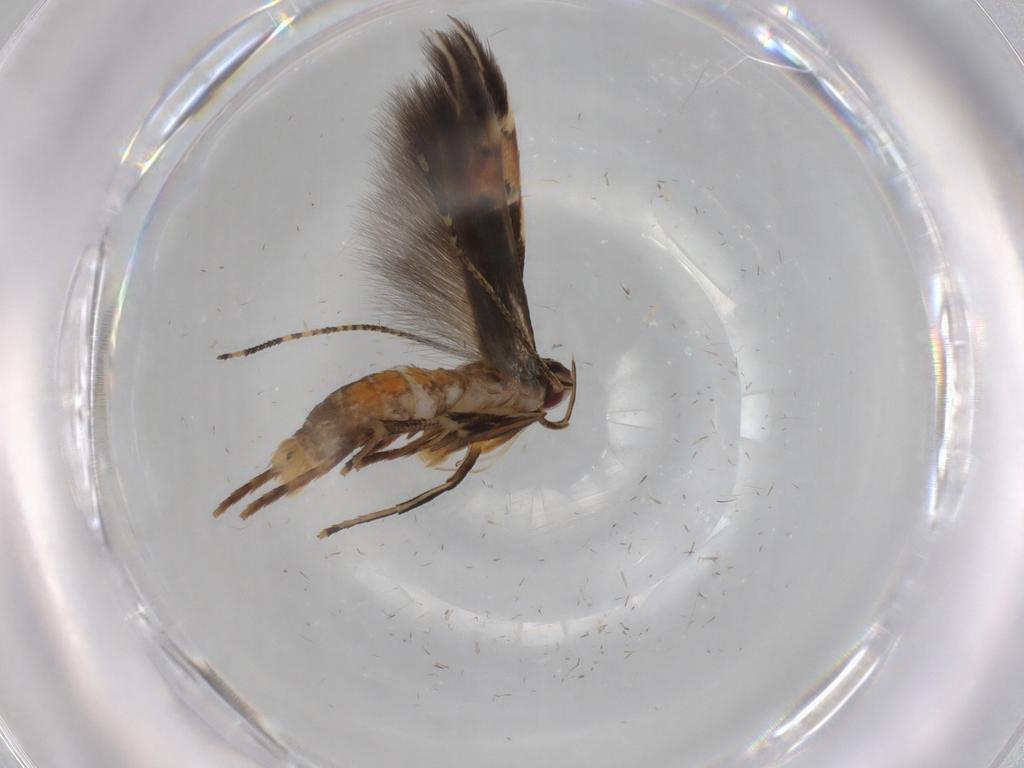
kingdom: Animalia
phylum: Arthropoda
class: Insecta
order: Lepidoptera
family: Cosmopterigidae
